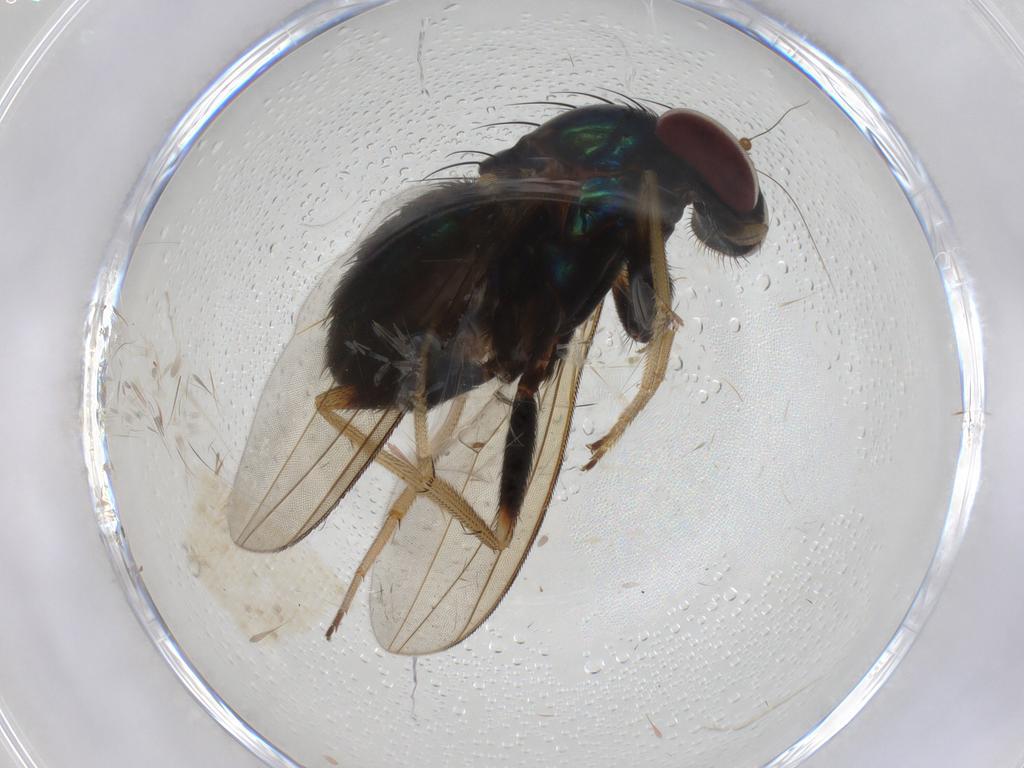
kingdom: Animalia
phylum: Arthropoda
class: Insecta
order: Diptera
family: Dolichopodidae
